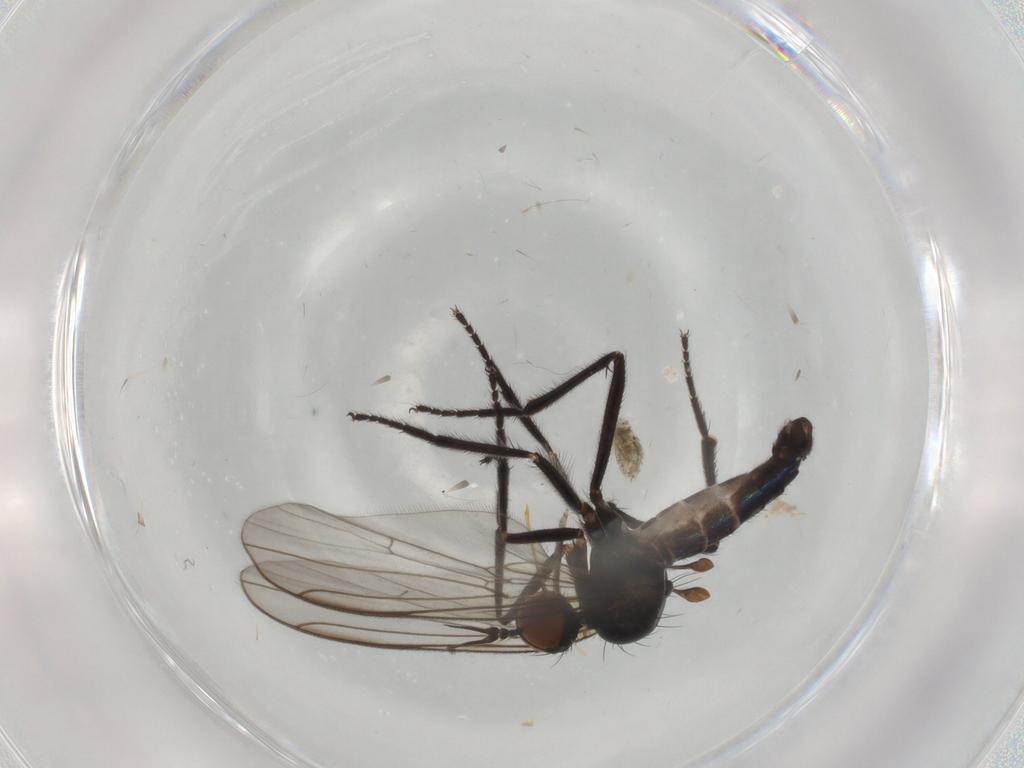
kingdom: Animalia
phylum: Arthropoda
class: Insecta
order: Diptera
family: Empididae
